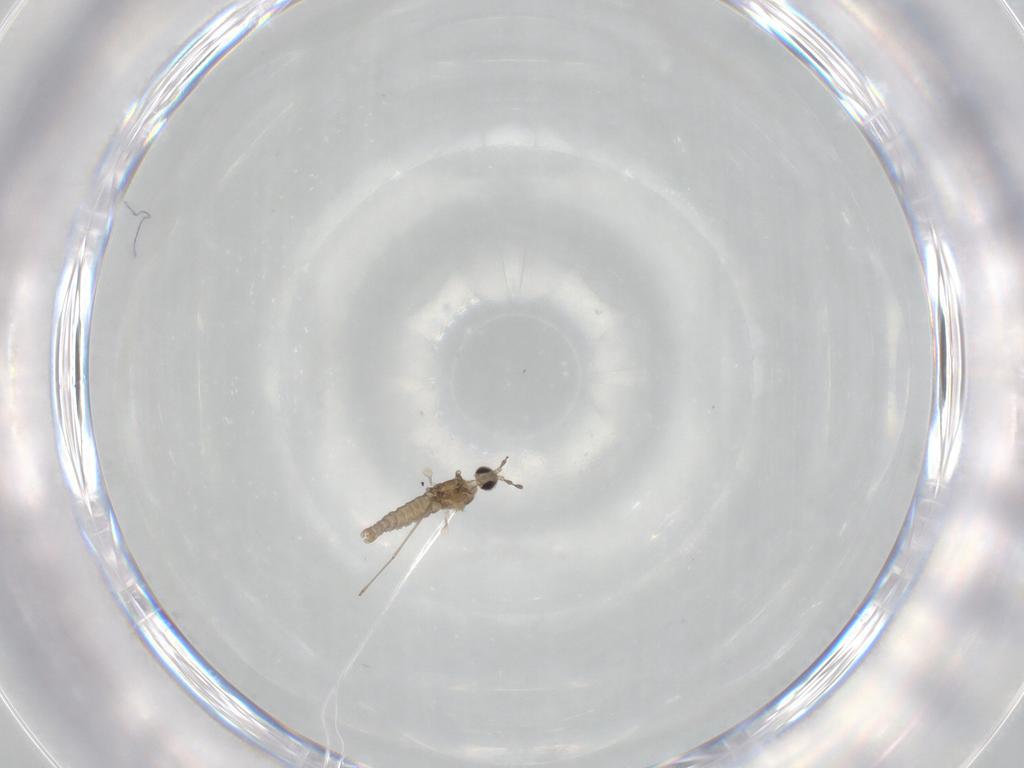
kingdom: Animalia
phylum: Arthropoda
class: Insecta
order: Diptera
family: Cecidomyiidae
